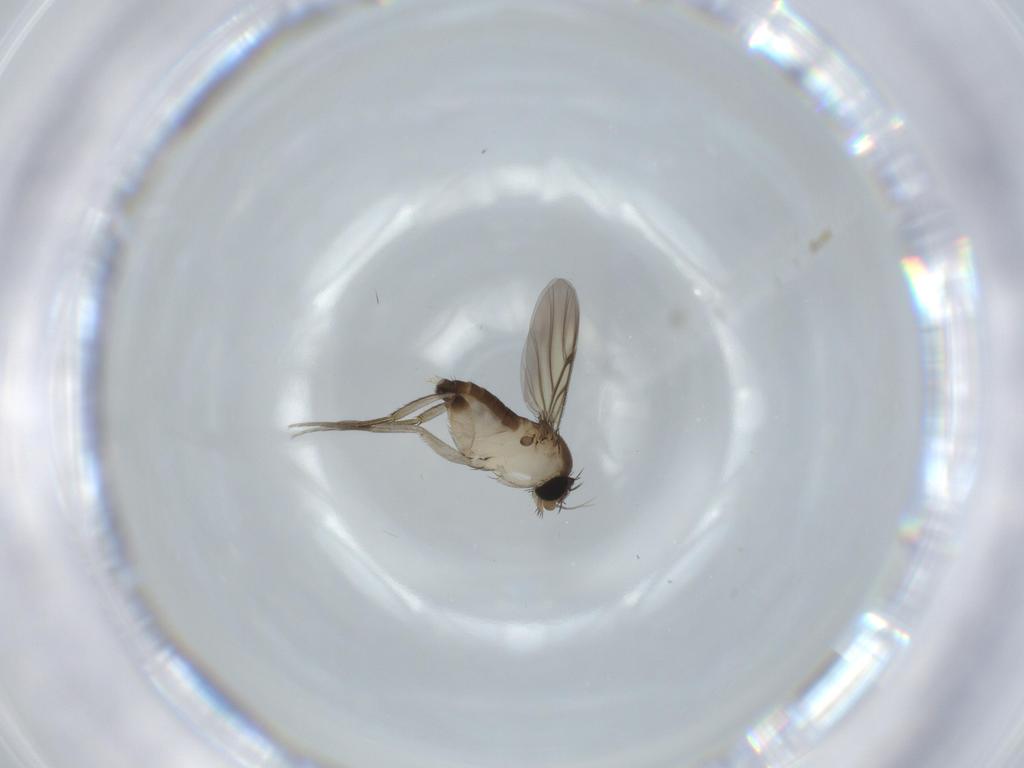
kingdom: Animalia
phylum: Arthropoda
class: Insecta
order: Diptera
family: Phoridae
